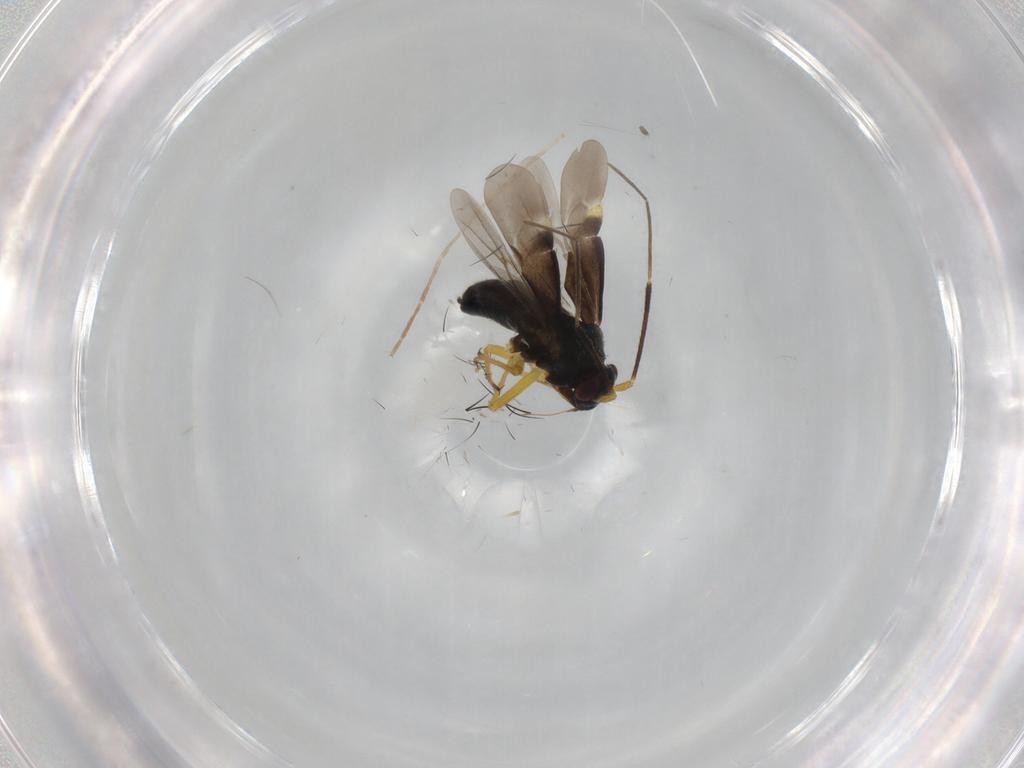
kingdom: Animalia
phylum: Arthropoda
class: Insecta
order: Hemiptera
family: Miridae
